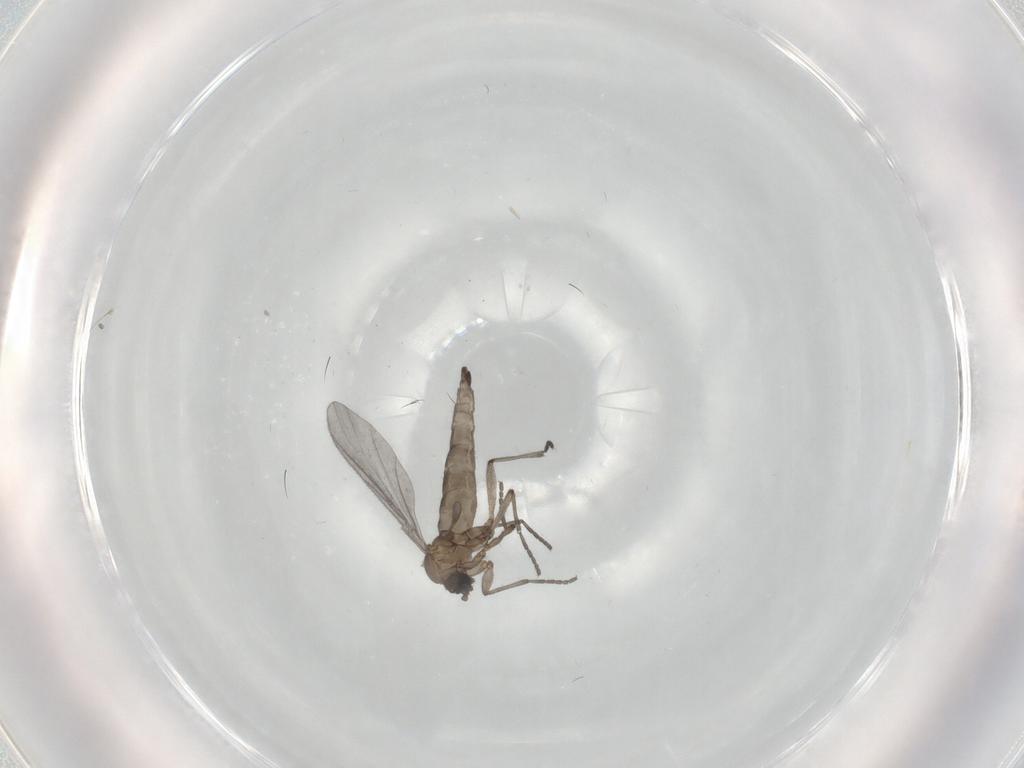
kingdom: Animalia
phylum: Arthropoda
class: Insecta
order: Diptera
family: Sciaridae
